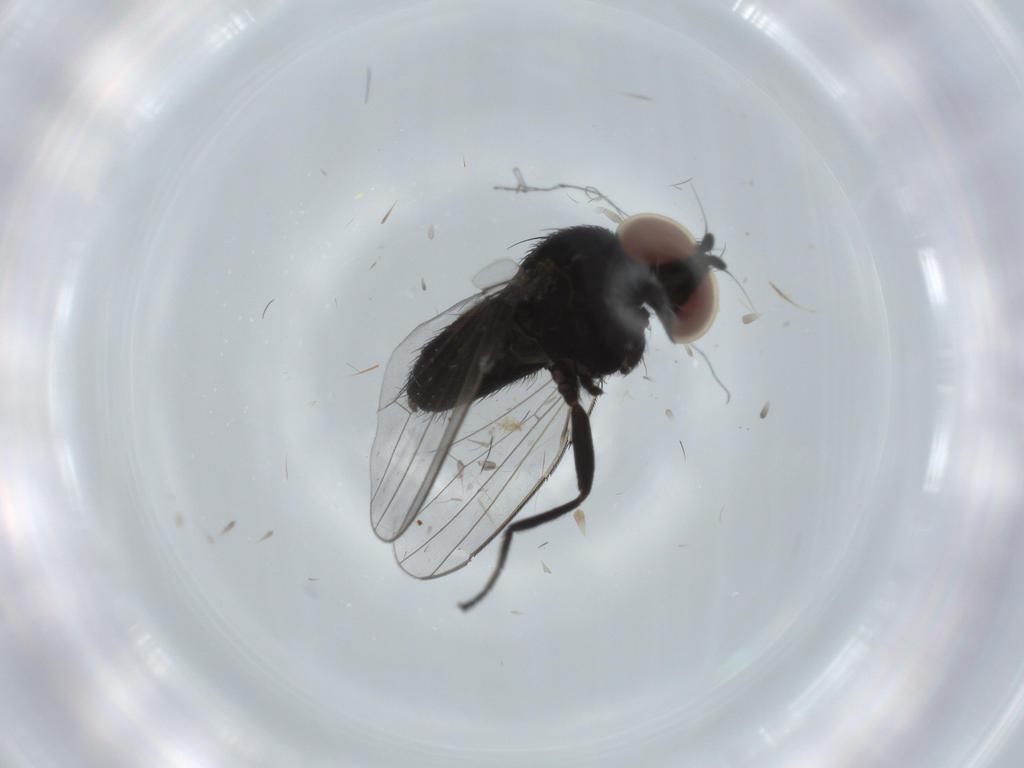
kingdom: Animalia
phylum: Arthropoda
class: Insecta
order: Diptera
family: Milichiidae
